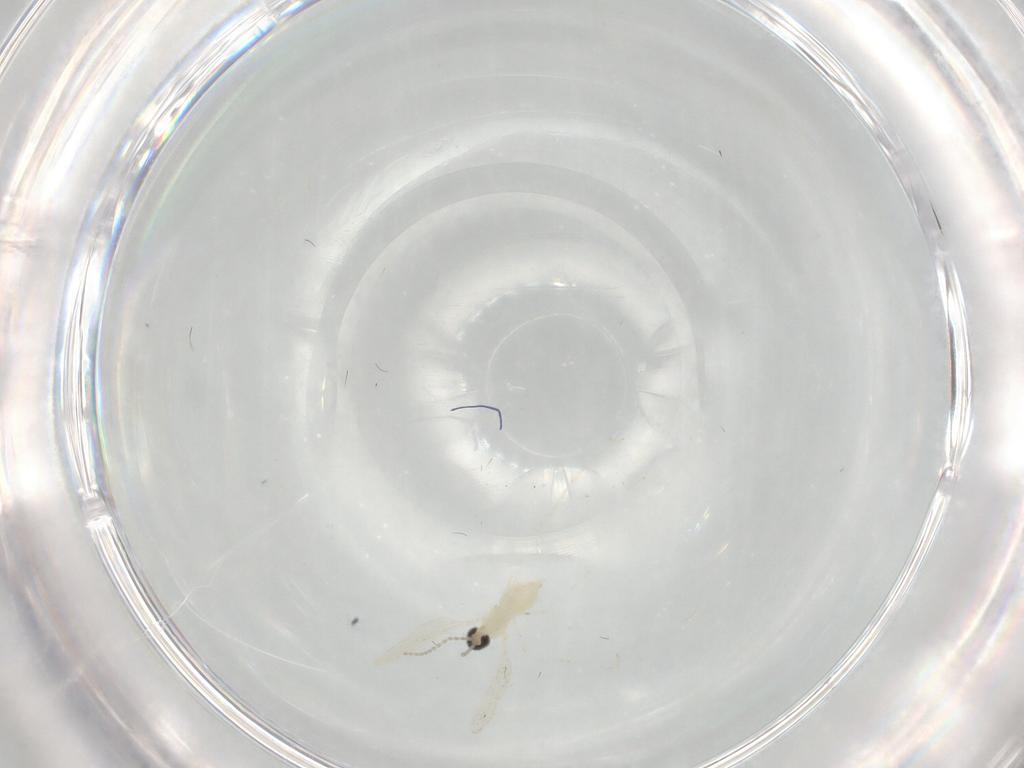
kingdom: Animalia
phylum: Arthropoda
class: Insecta
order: Diptera
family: Cecidomyiidae
